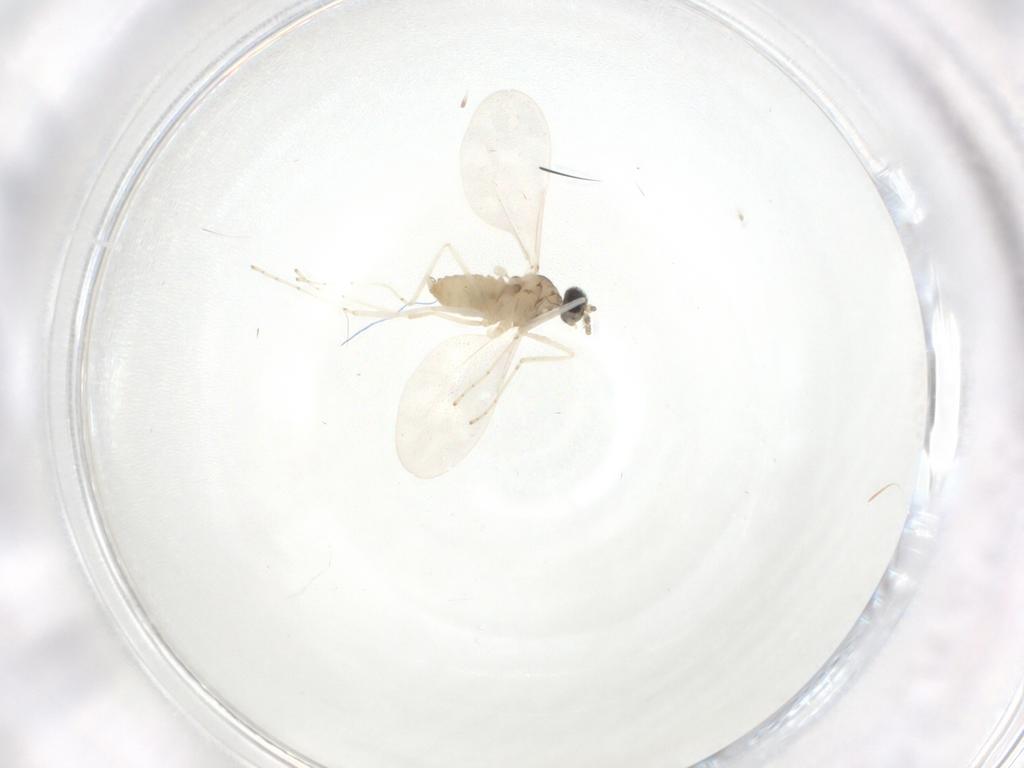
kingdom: Animalia
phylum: Arthropoda
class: Insecta
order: Diptera
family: Cecidomyiidae
